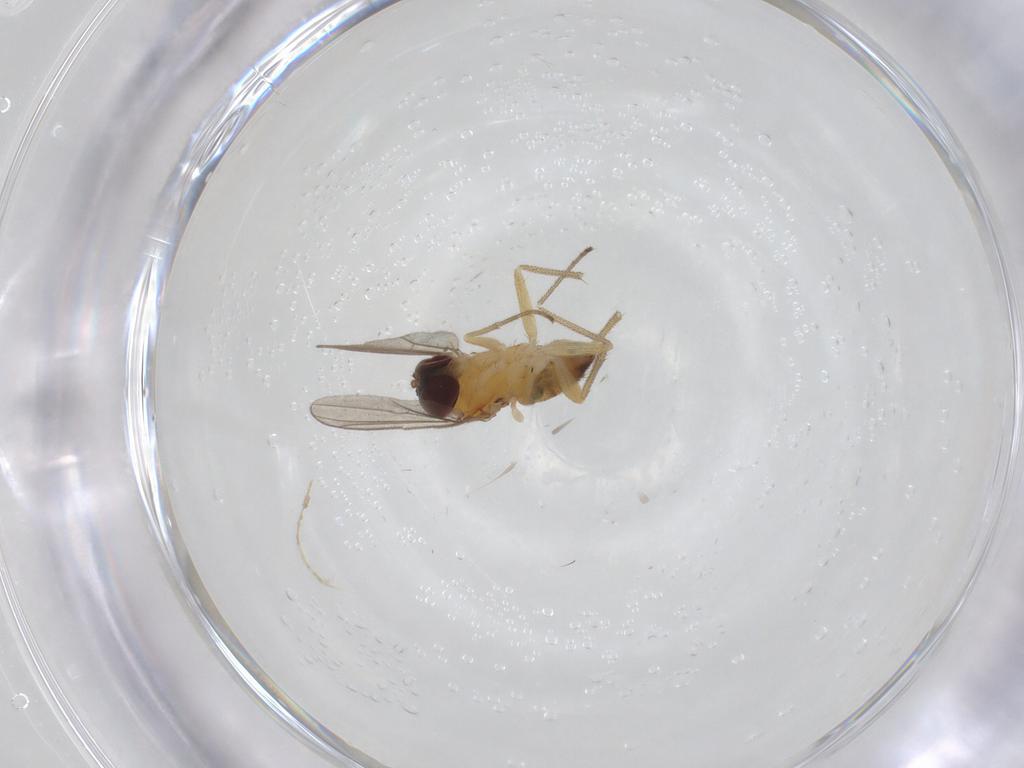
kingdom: Animalia
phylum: Arthropoda
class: Insecta
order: Diptera
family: Dolichopodidae
